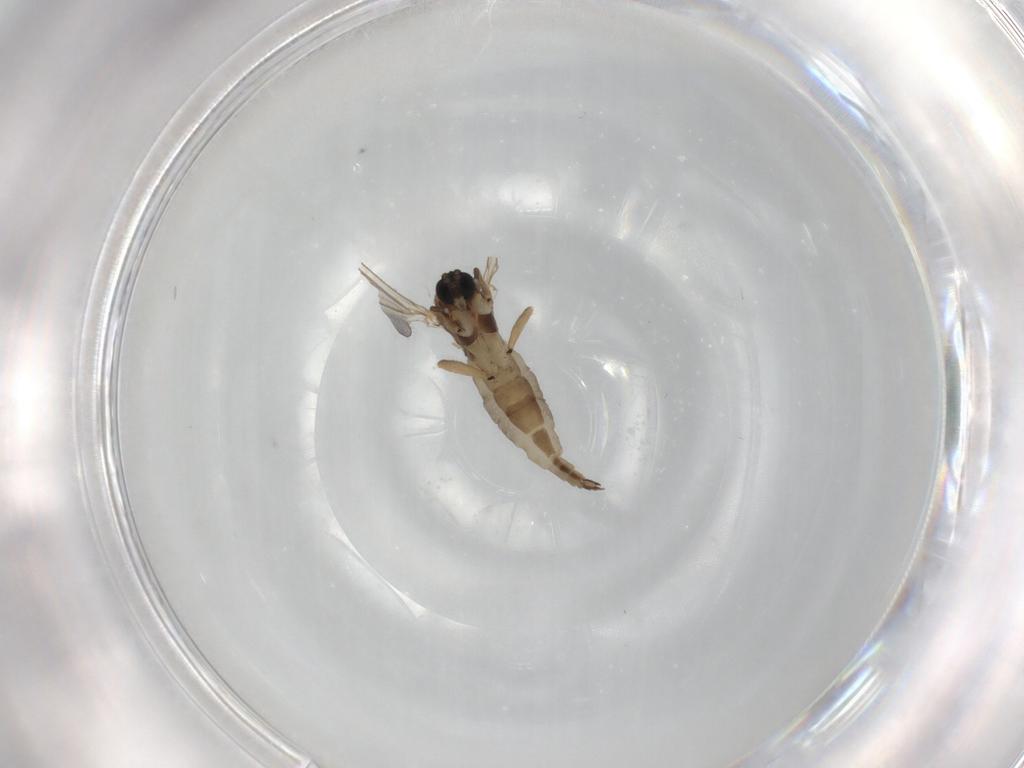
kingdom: Animalia
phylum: Arthropoda
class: Insecta
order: Diptera
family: Sciaridae
